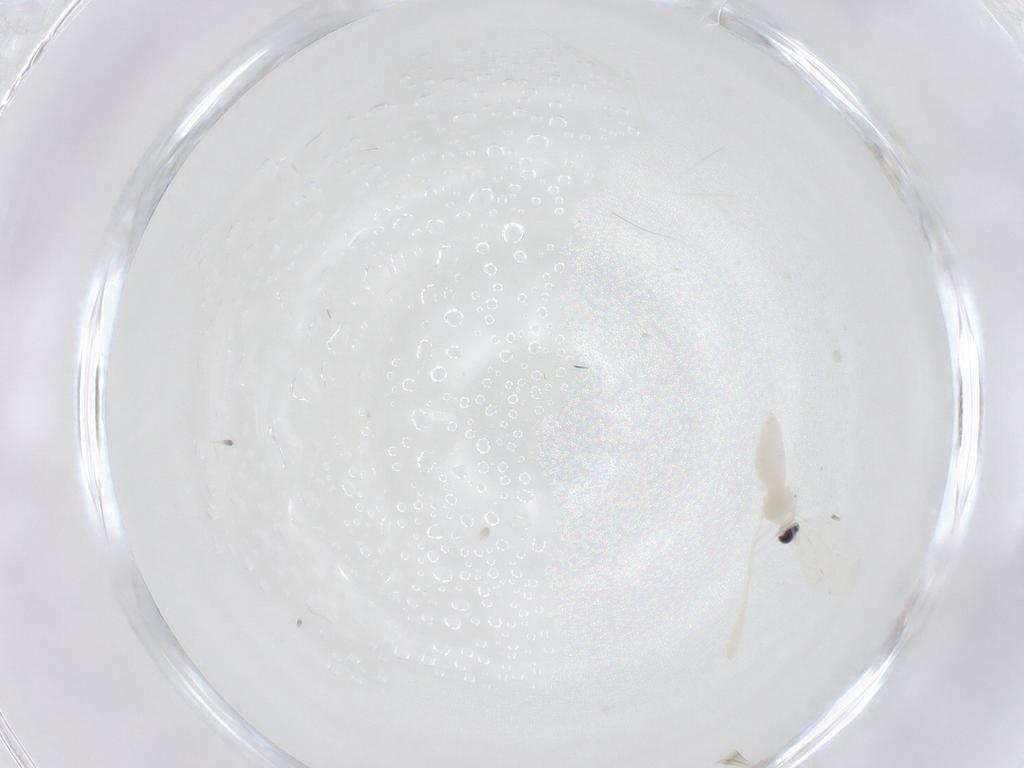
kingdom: Animalia
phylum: Arthropoda
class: Insecta
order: Diptera
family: Cecidomyiidae
